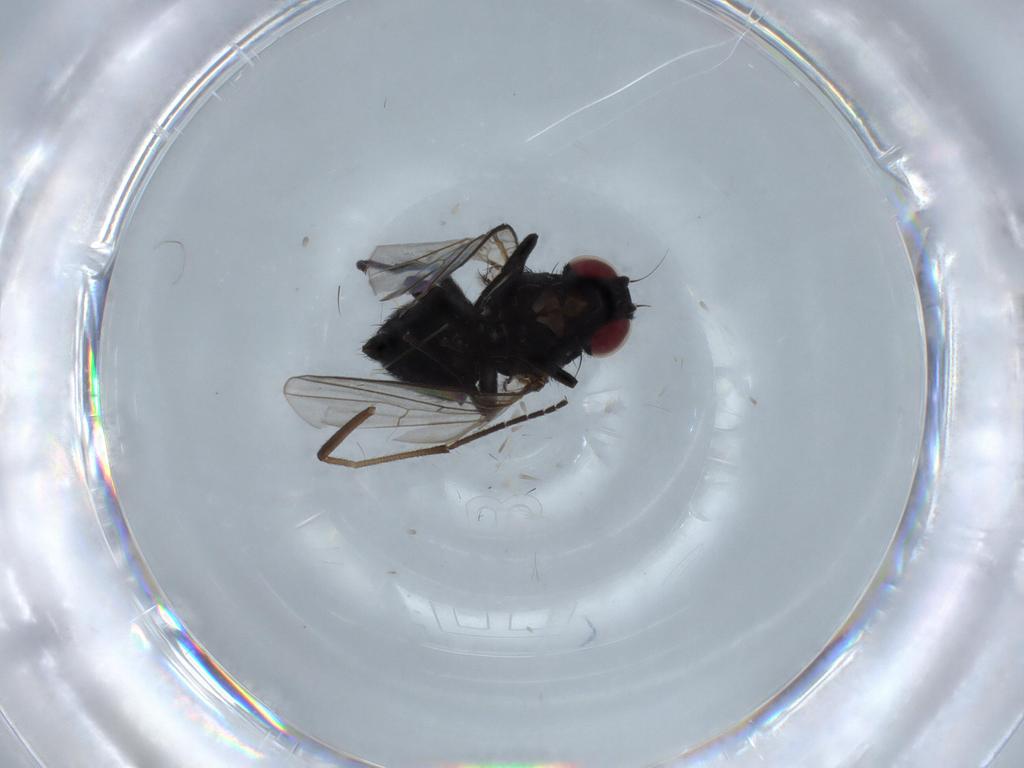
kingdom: Animalia
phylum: Arthropoda
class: Insecta
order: Diptera
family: Agromyzidae
